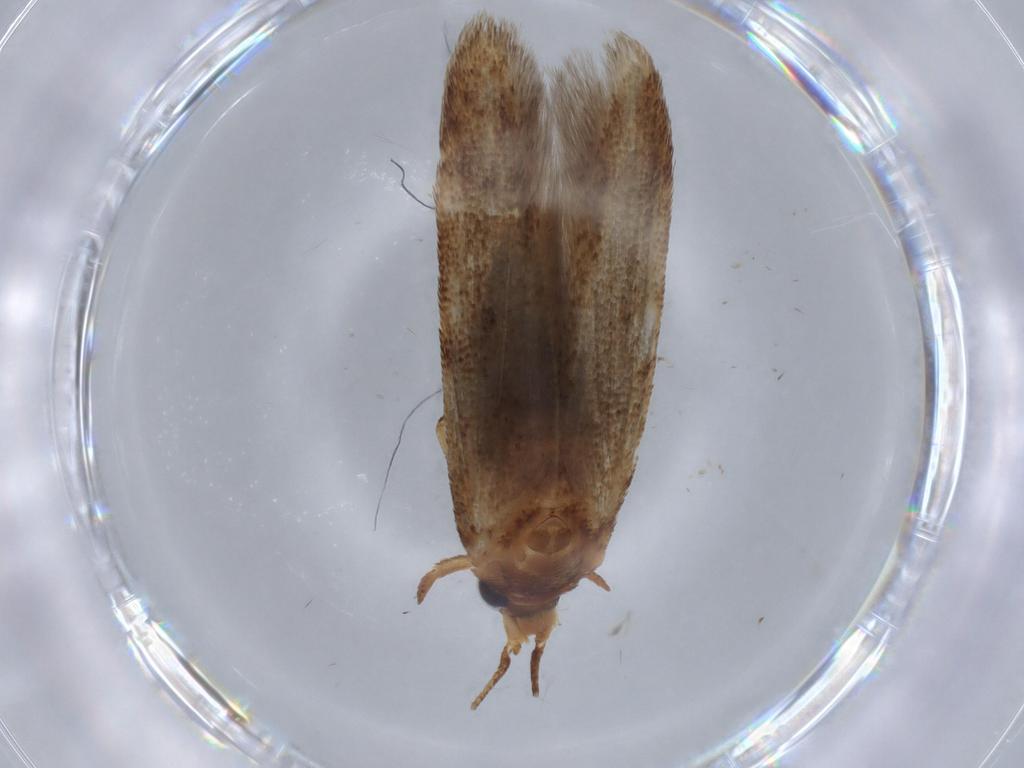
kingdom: Animalia
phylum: Arthropoda
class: Insecta
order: Lepidoptera
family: Blastobasidae
